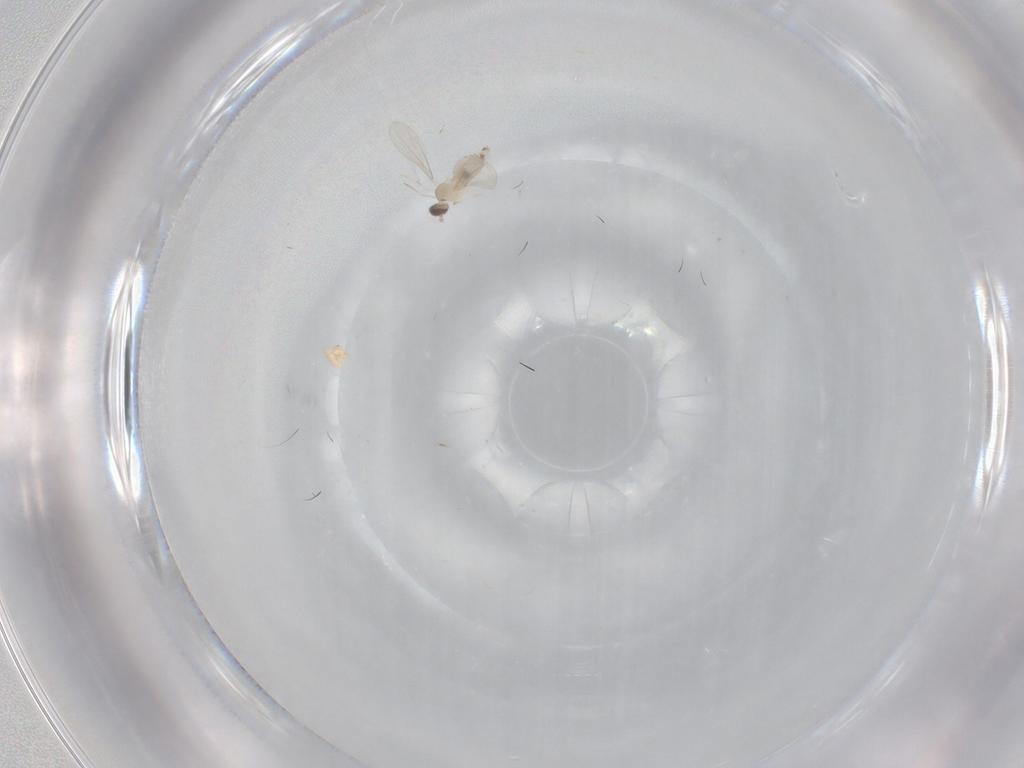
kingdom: Animalia
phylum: Arthropoda
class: Insecta
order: Diptera
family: Cecidomyiidae
